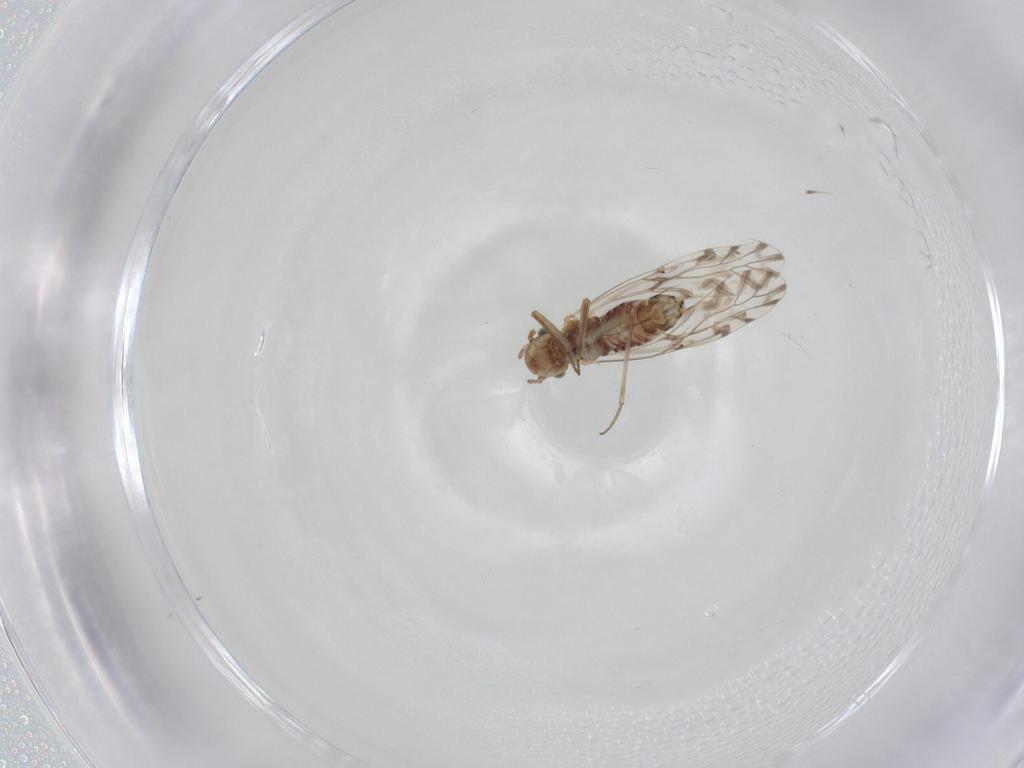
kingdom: Animalia
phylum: Arthropoda
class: Insecta
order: Psocodea
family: Lachesillidae
